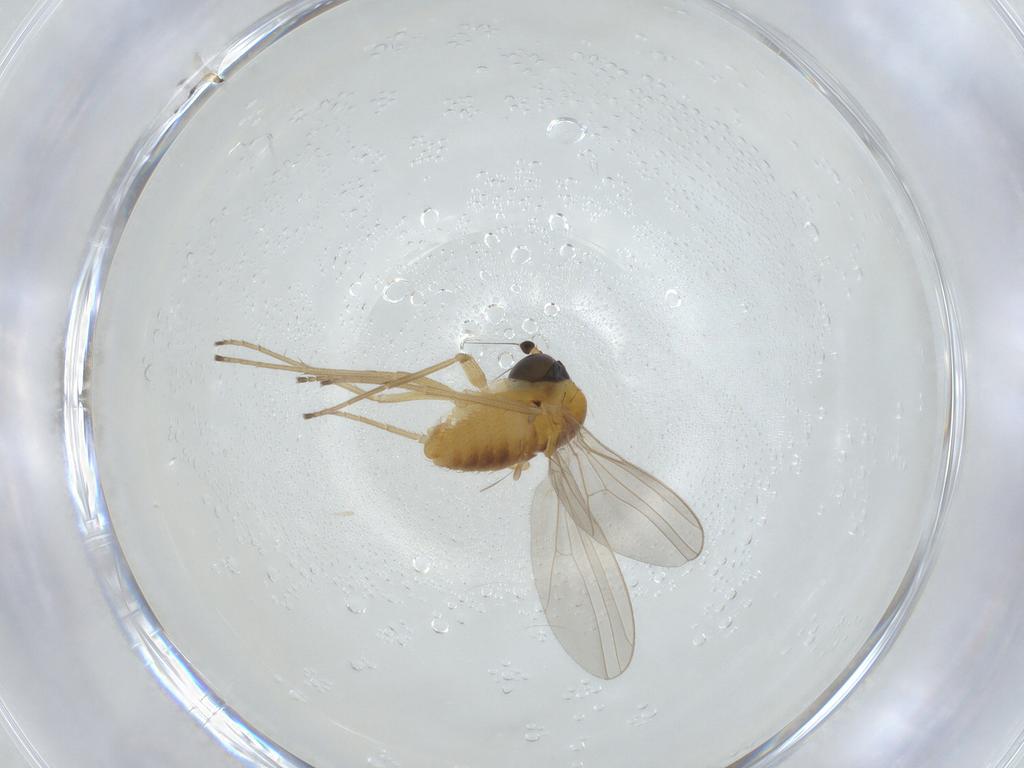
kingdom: Animalia
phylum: Arthropoda
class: Insecta
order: Diptera
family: Dolichopodidae
